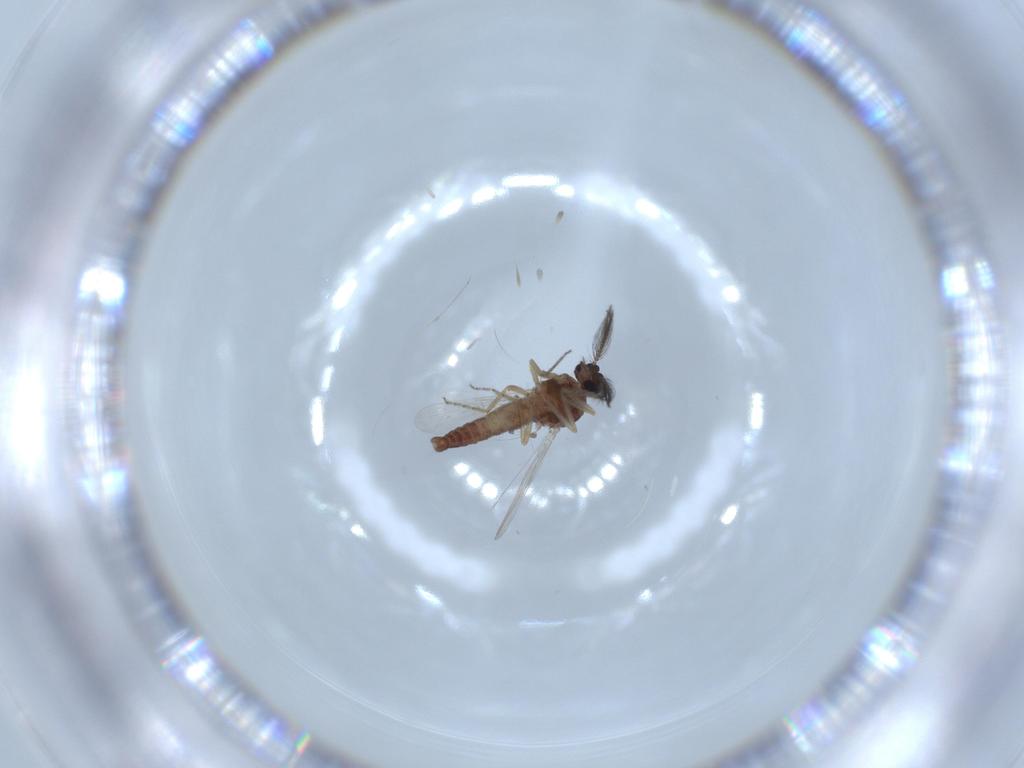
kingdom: Animalia
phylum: Arthropoda
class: Insecta
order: Diptera
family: Ceratopogonidae
